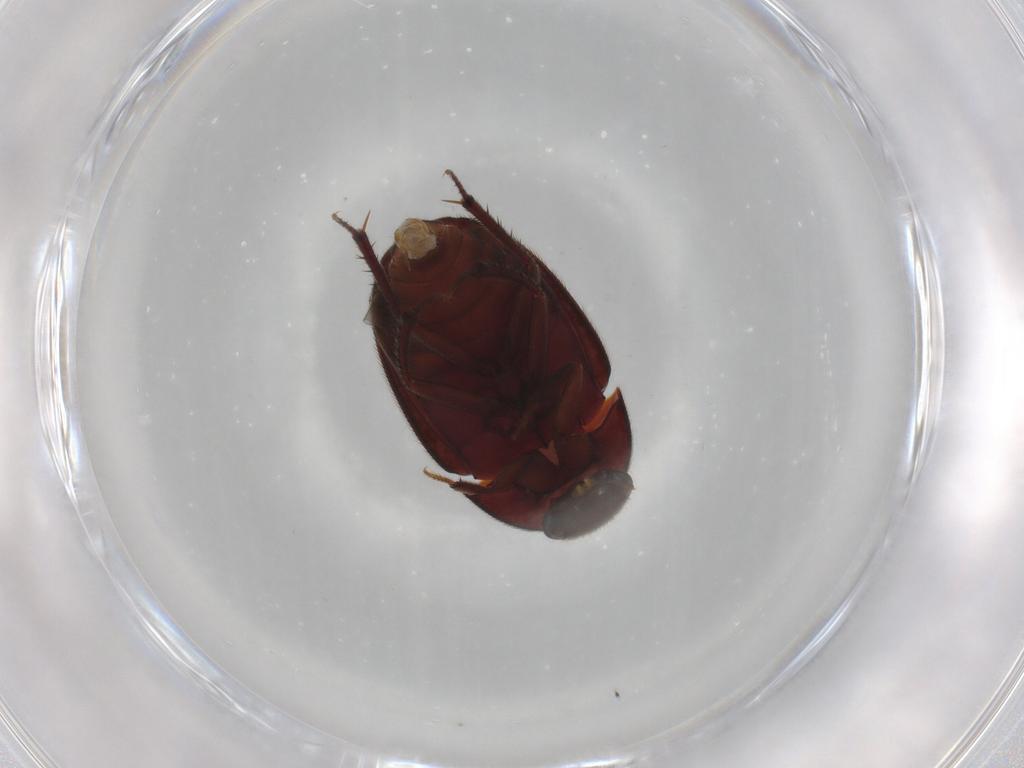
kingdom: Animalia
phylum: Arthropoda
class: Insecta
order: Coleoptera
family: Leiodidae
